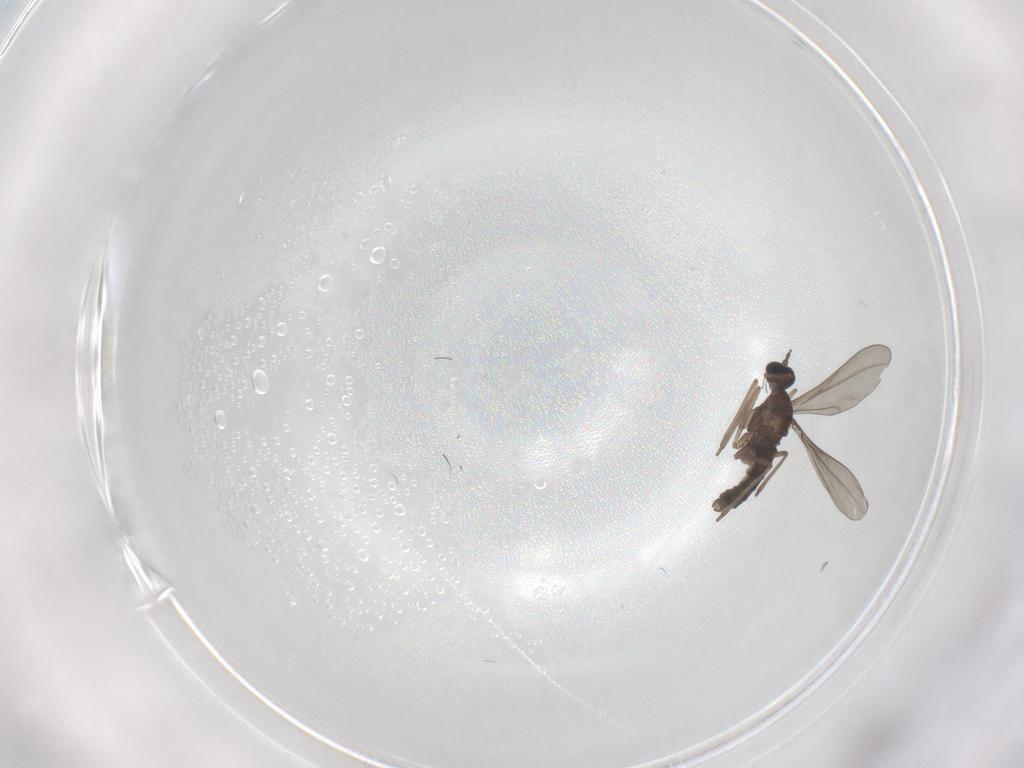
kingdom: Animalia
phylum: Arthropoda
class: Insecta
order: Diptera
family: Cecidomyiidae
